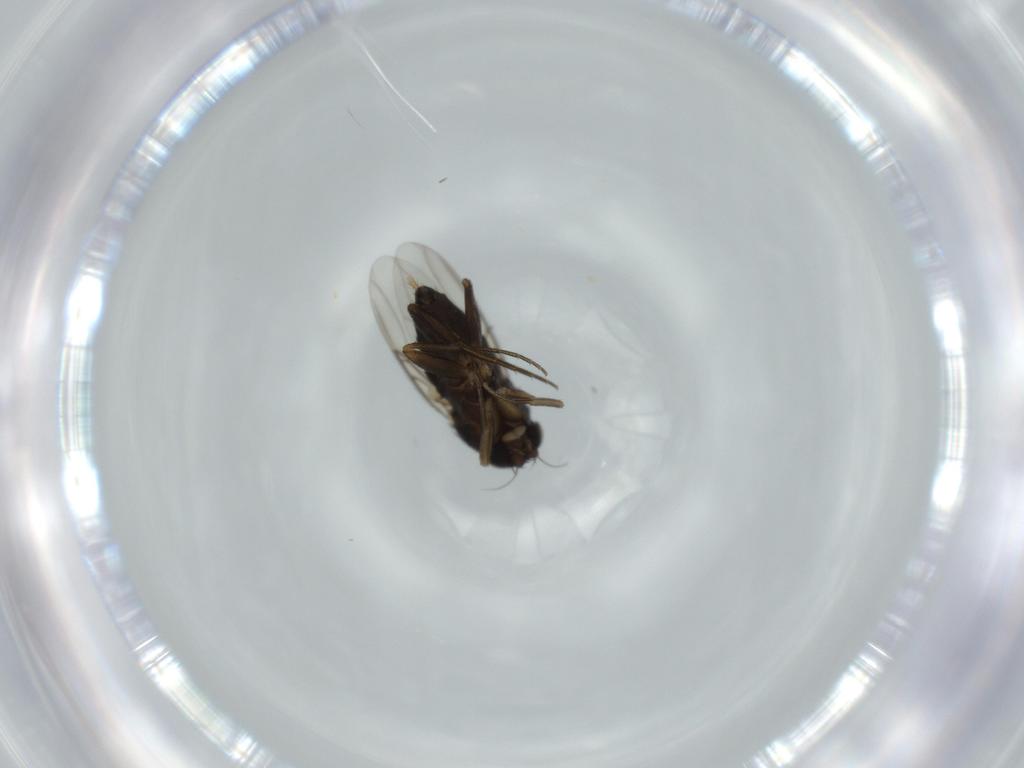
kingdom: Animalia
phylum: Arthropoda
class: Insecta
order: Diptera
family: Phoridae
